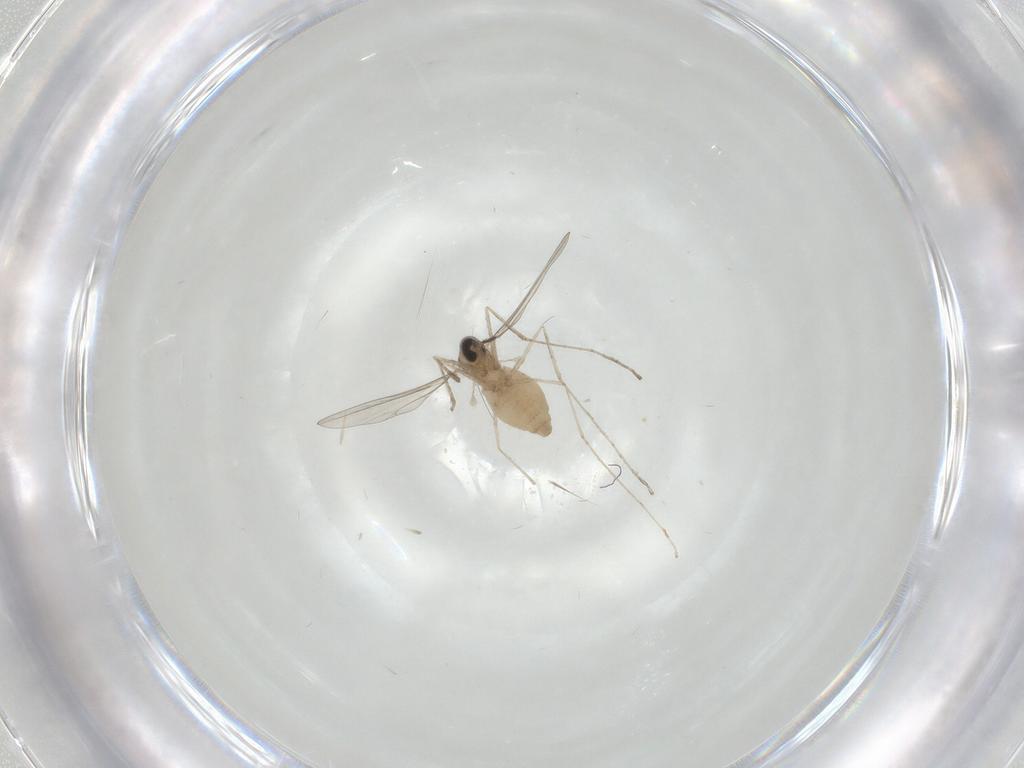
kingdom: Animalia
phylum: Arthropoda
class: Insecta
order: Diptera
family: Cecidomyiidae
